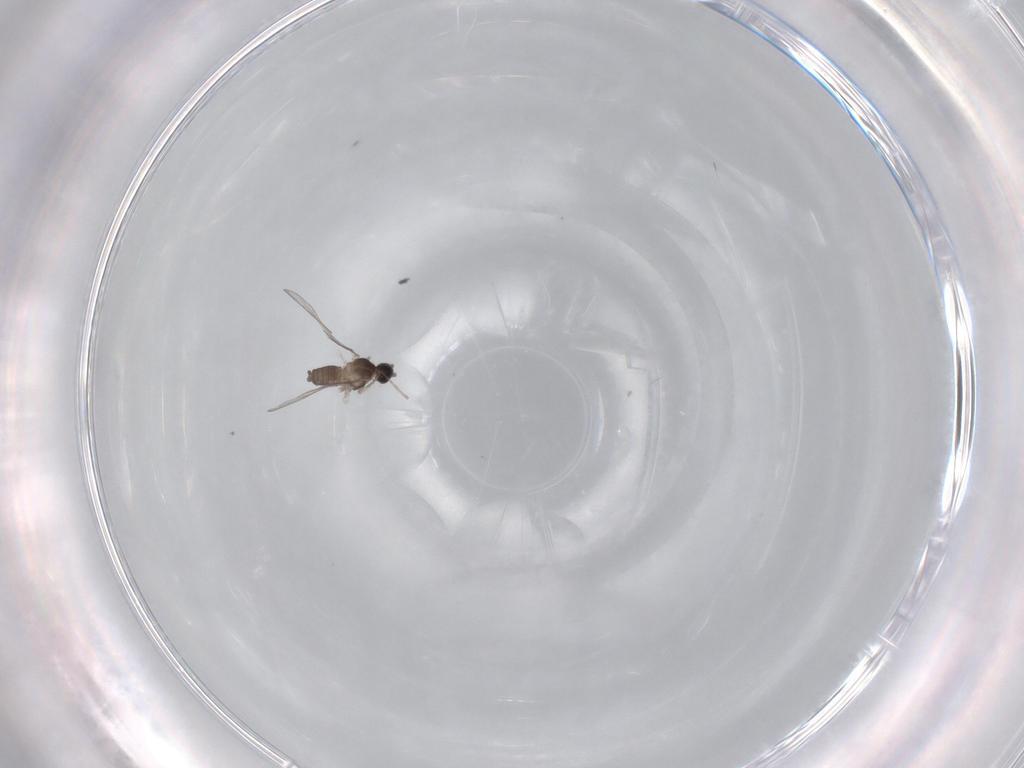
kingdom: Animalia
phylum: Arthropoda
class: Insecta
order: Diptera
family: Cecidomyiidae
